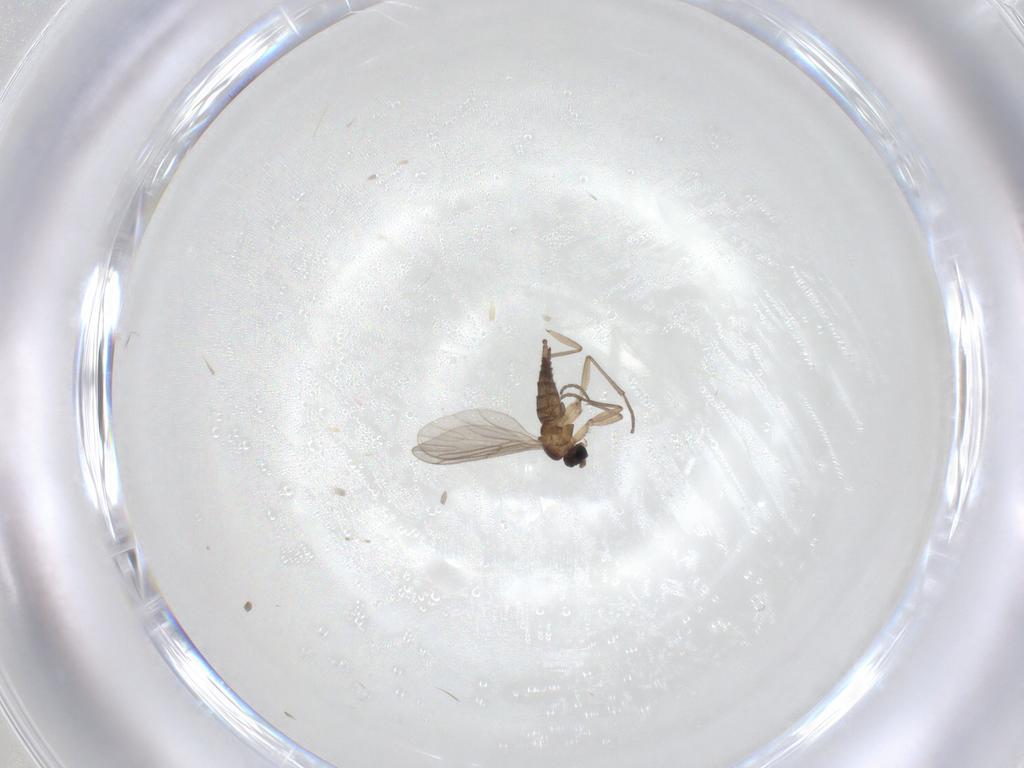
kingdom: Animalia
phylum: Arthropoda
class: Insecta
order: Diptera
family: Sciaridae
